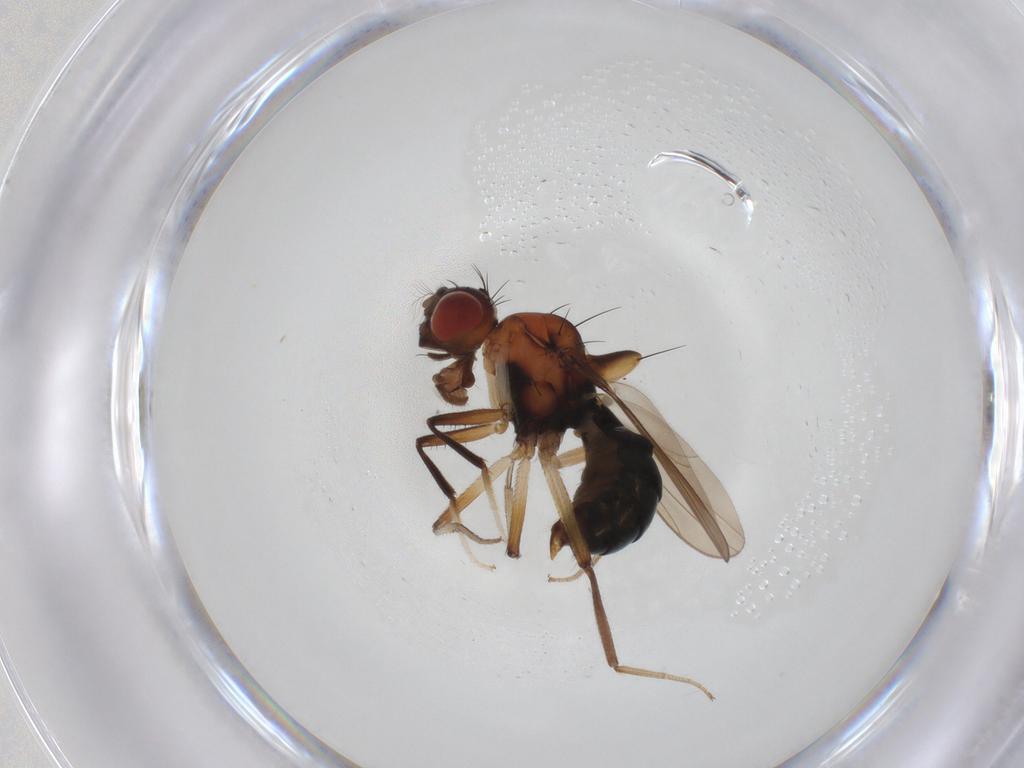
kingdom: Animalia
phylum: Arthropoda
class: Insecta
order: Diptera
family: Drosophilidae
